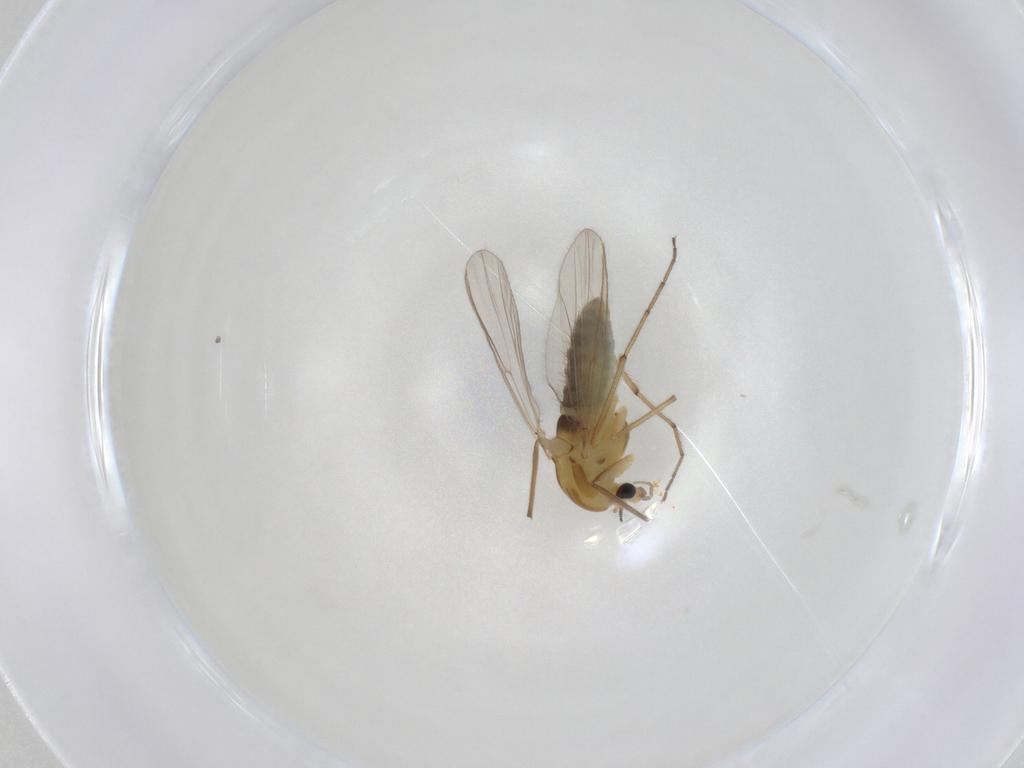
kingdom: Animalia
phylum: Arthropoda
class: Insecta
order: Diptera
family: Chironomidae
